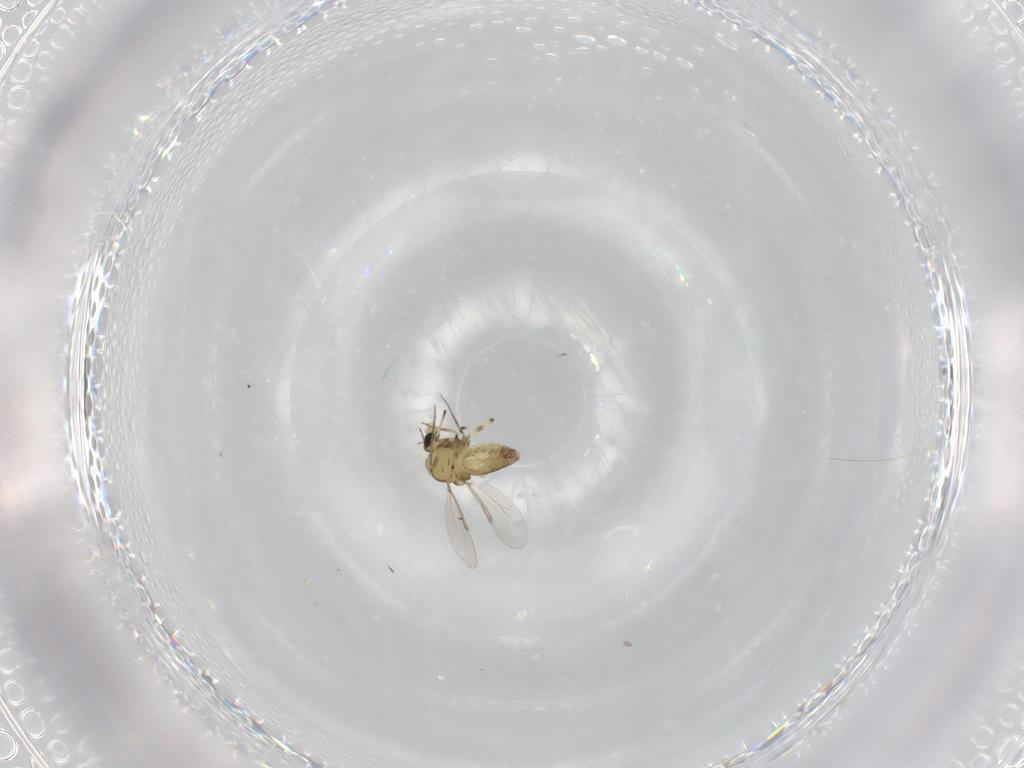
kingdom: Animalia
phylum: Arthropoda
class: Insecta
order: Diptera
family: Chironomidae
